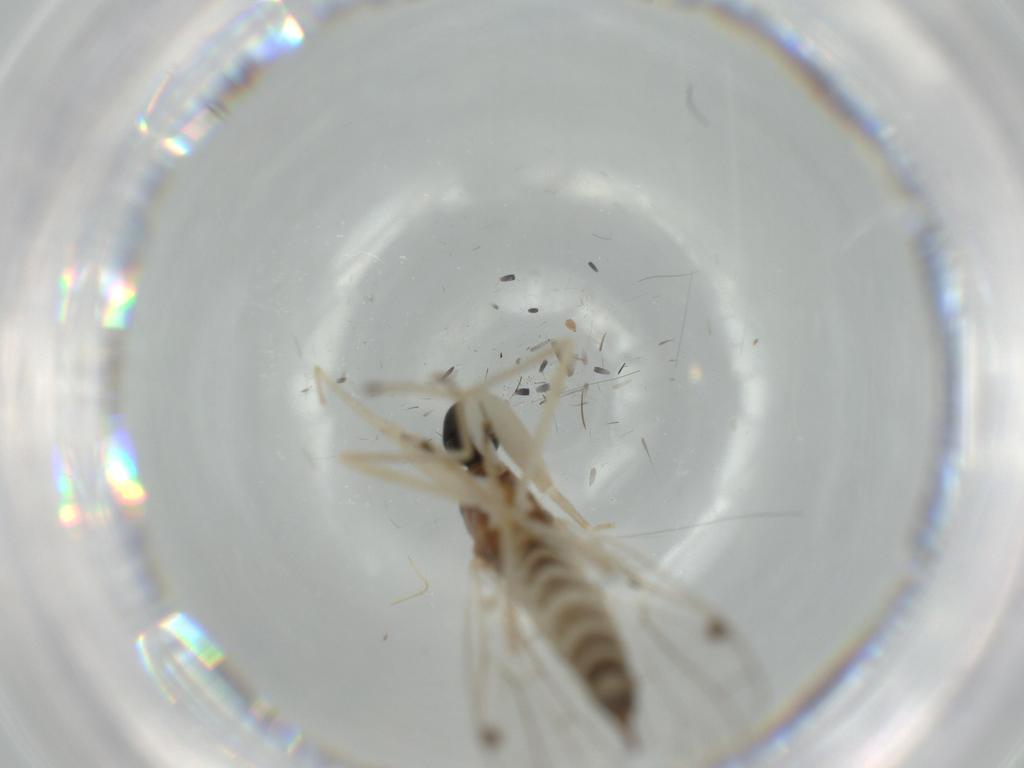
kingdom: Animalia
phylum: Arthropoda
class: Insecta
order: Diptera
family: Empididae
